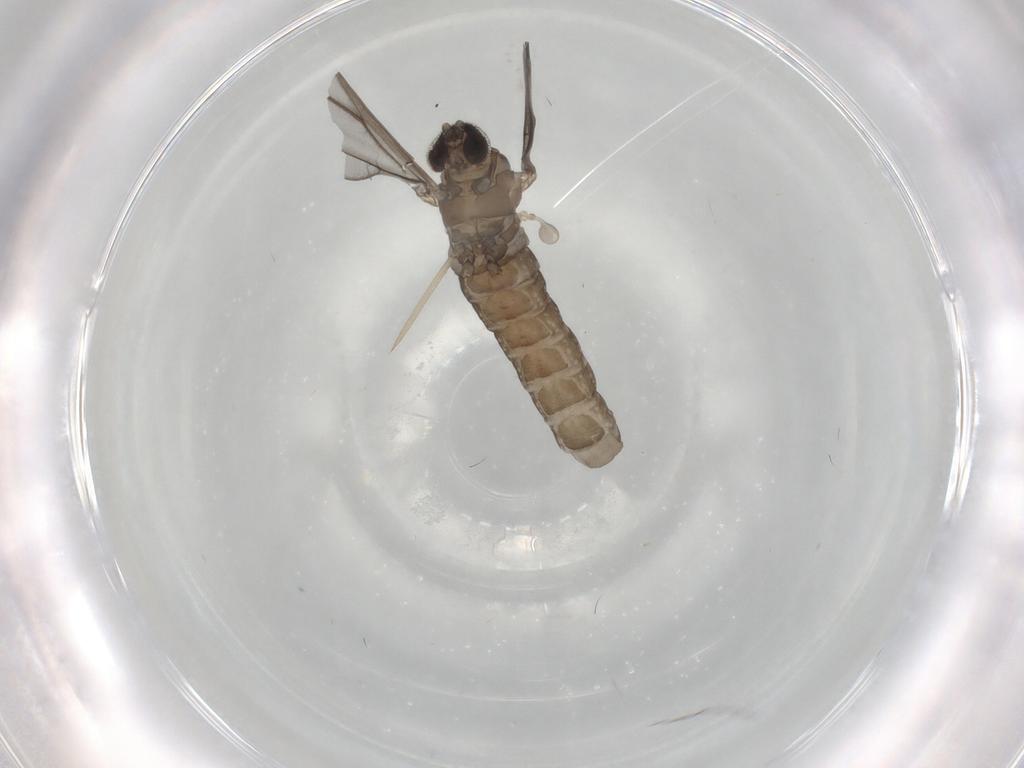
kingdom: Animalia
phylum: Arthropoda
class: Insecta
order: Diptera
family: Cecidomyiidae
